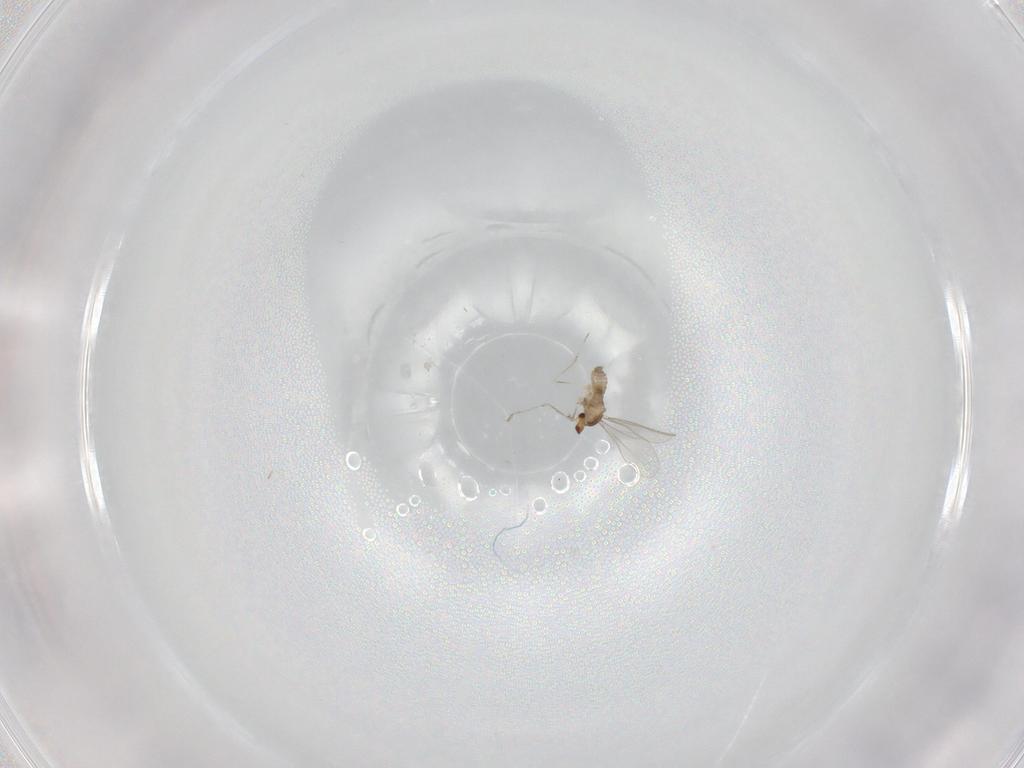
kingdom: Animalia
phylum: Arthropoda
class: Insecta
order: Diptera
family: Cecidomyiidae
